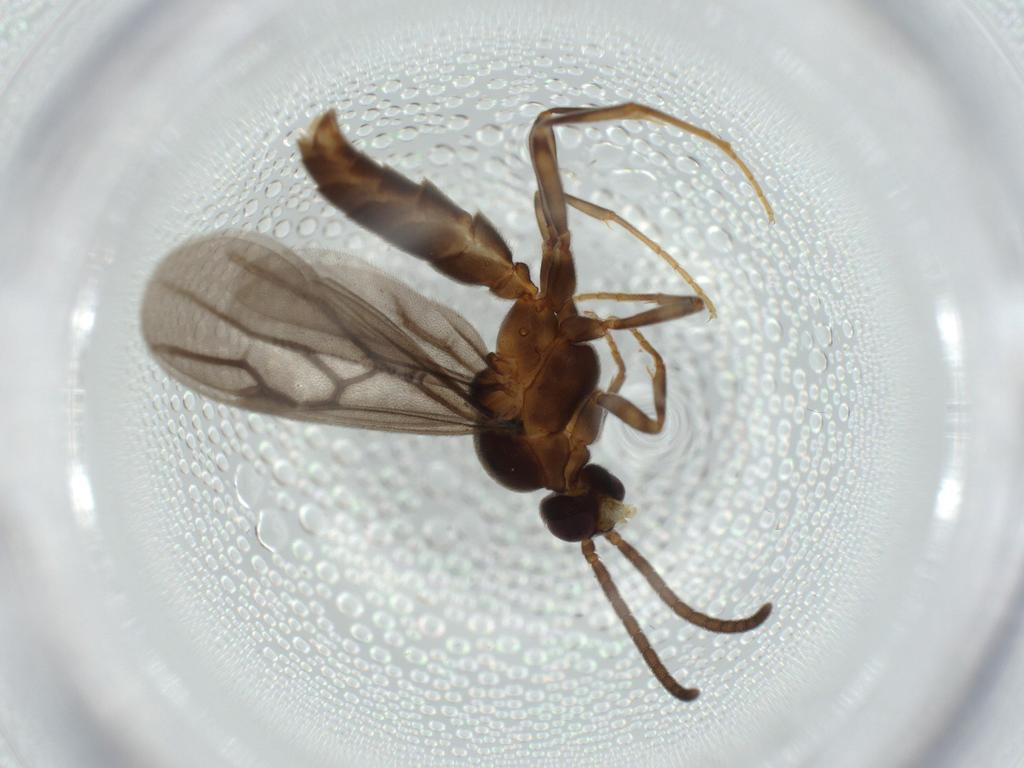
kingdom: Animalia
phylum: Arthropoda
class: Insecta
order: Hymenoptera
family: Formicidae
